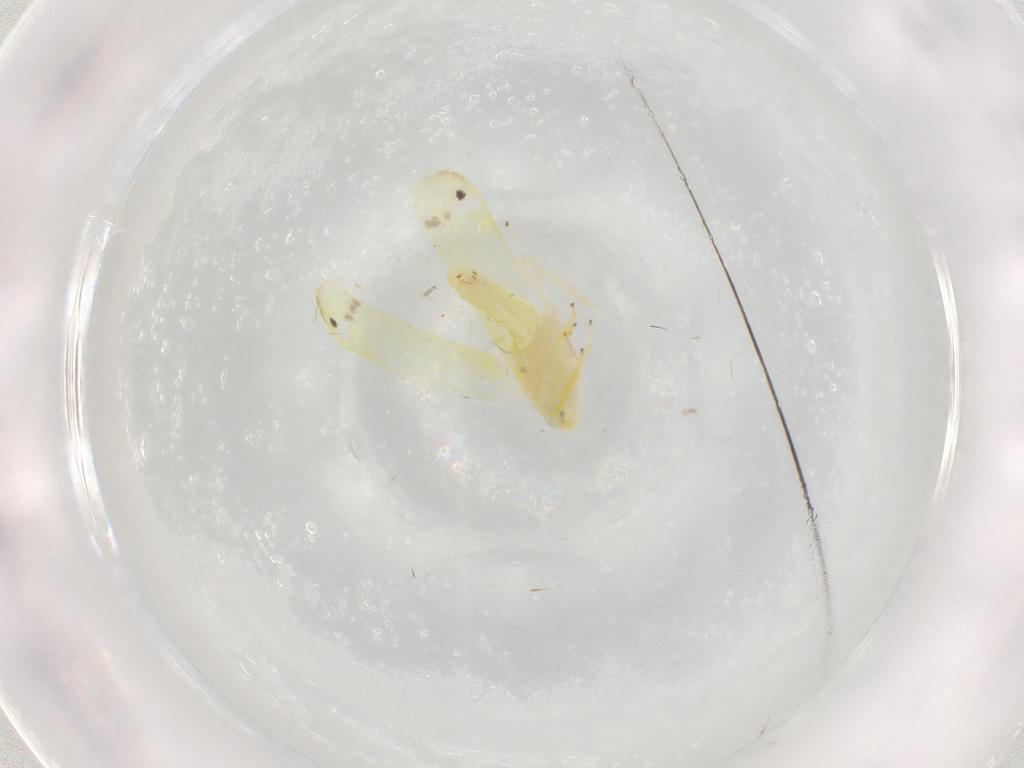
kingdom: Animalia
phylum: Arthropoda
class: Insecta
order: Hemiptera
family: Cicadellidae
